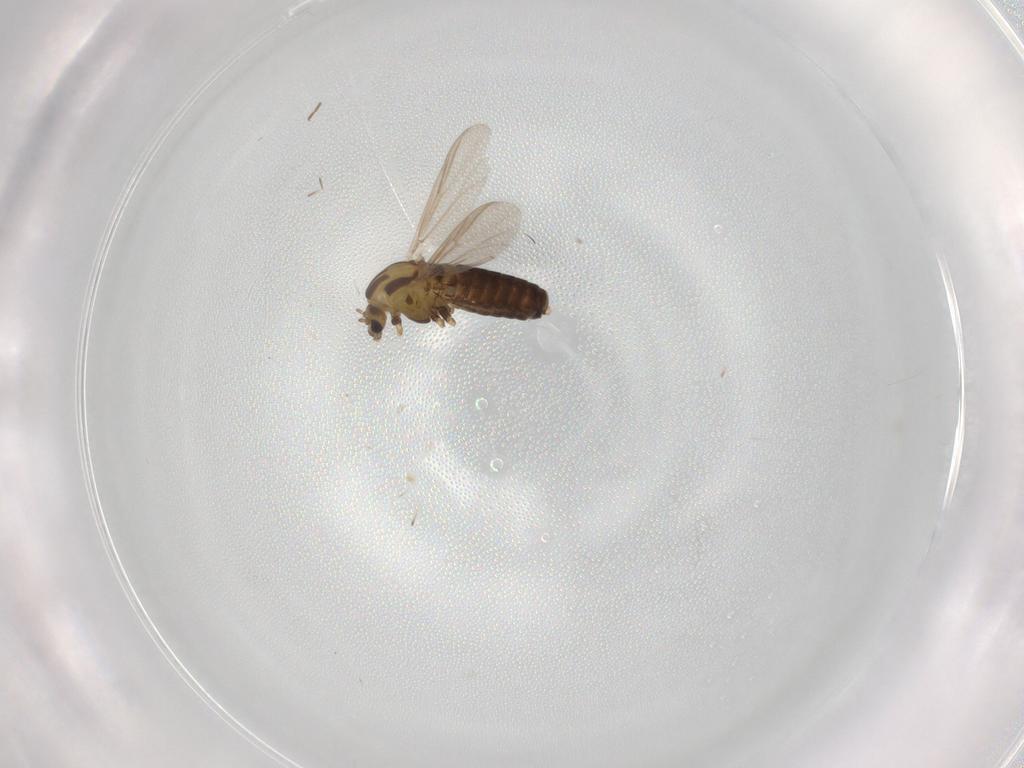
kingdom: Animalia
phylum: Arthropoda
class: Insecta
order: Diptera
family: Chironomidae
